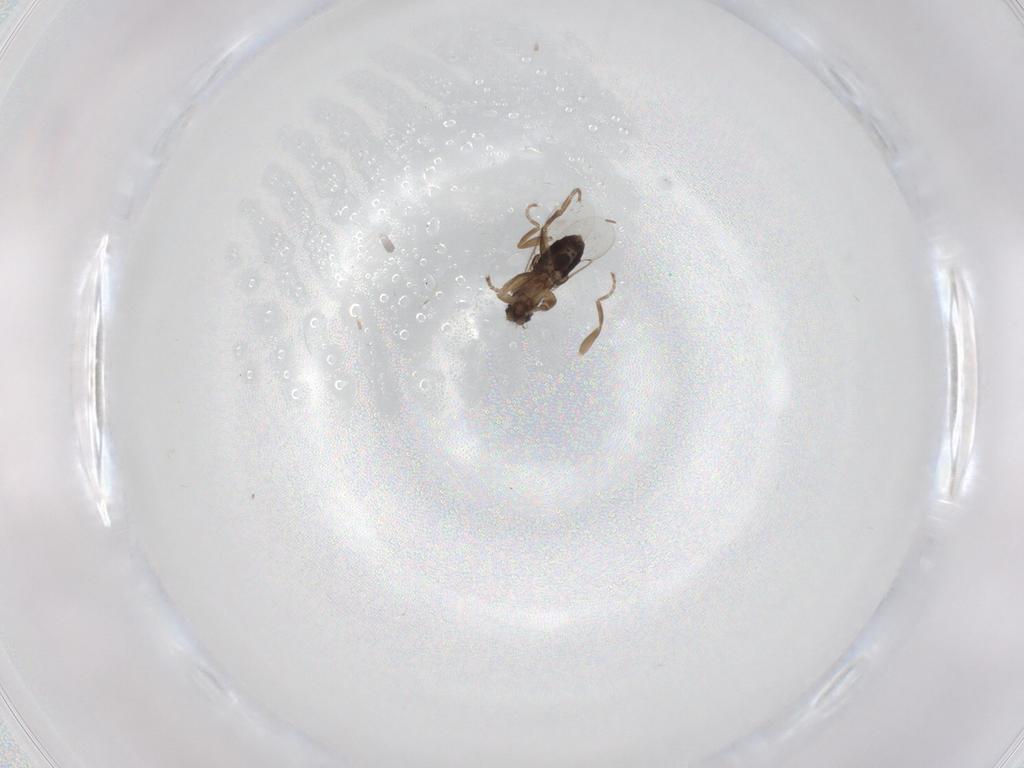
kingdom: Animalia
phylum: Arthropoda
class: Insecta
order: Diptera
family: Phoridae
